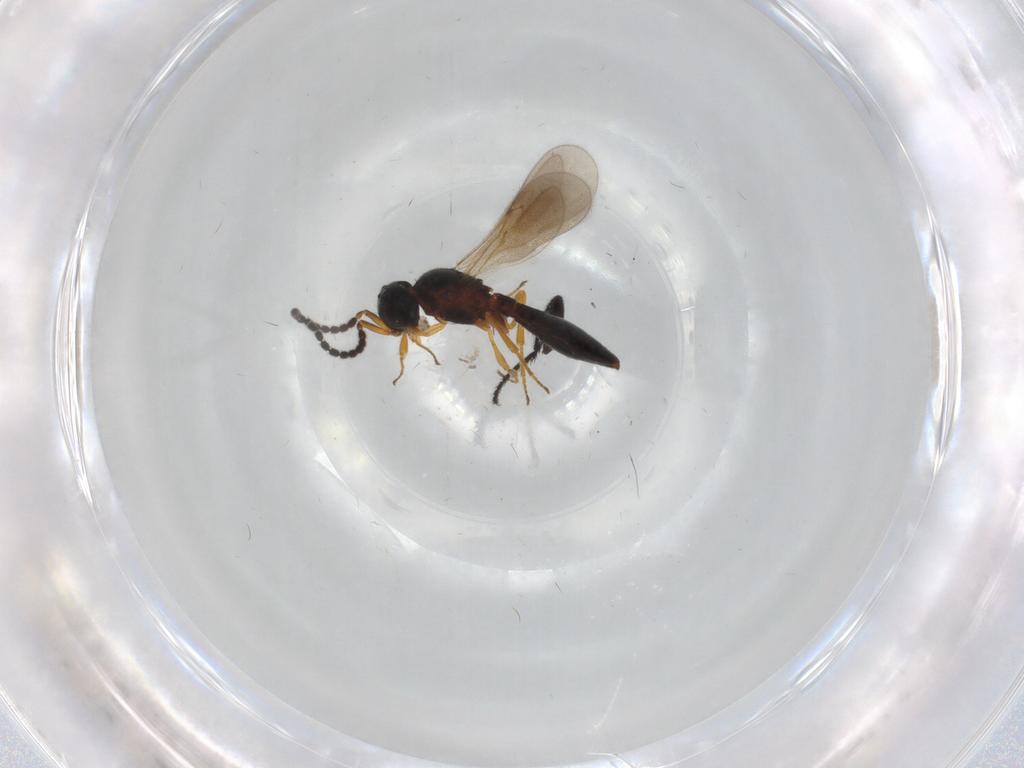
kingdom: Animalia
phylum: Arthropoda
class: Insecta
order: Hymenoptera
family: Scelionidae
